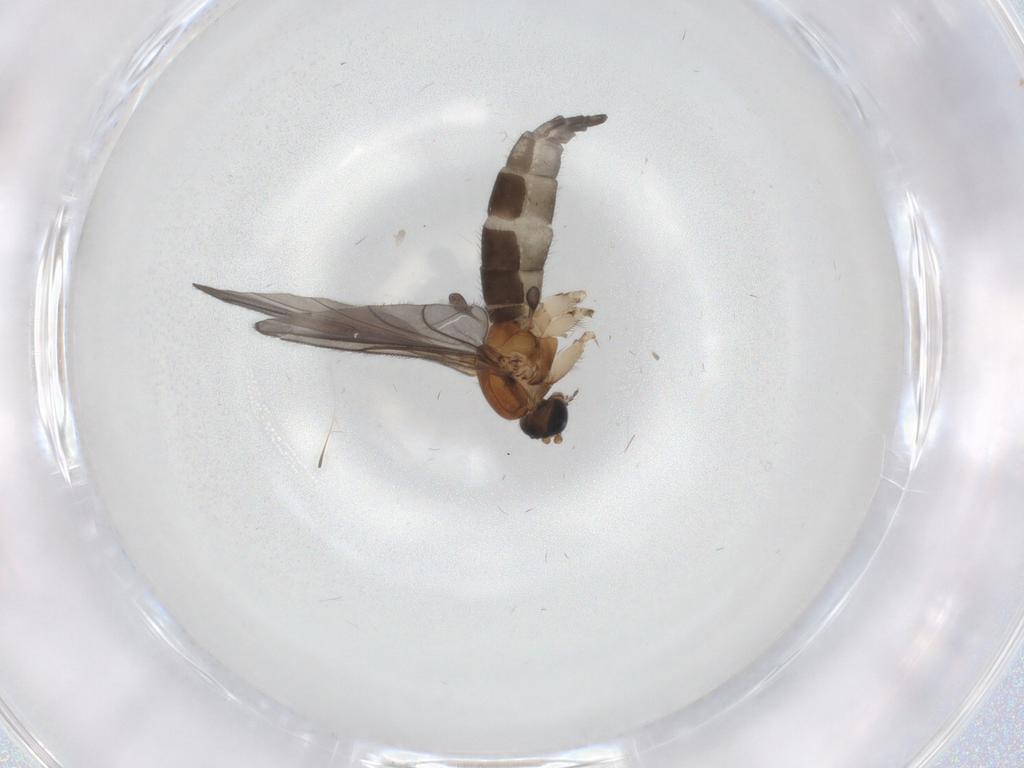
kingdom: Animalia
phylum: Arthropoda
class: Insecta
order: Diptera
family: Sciaridae
